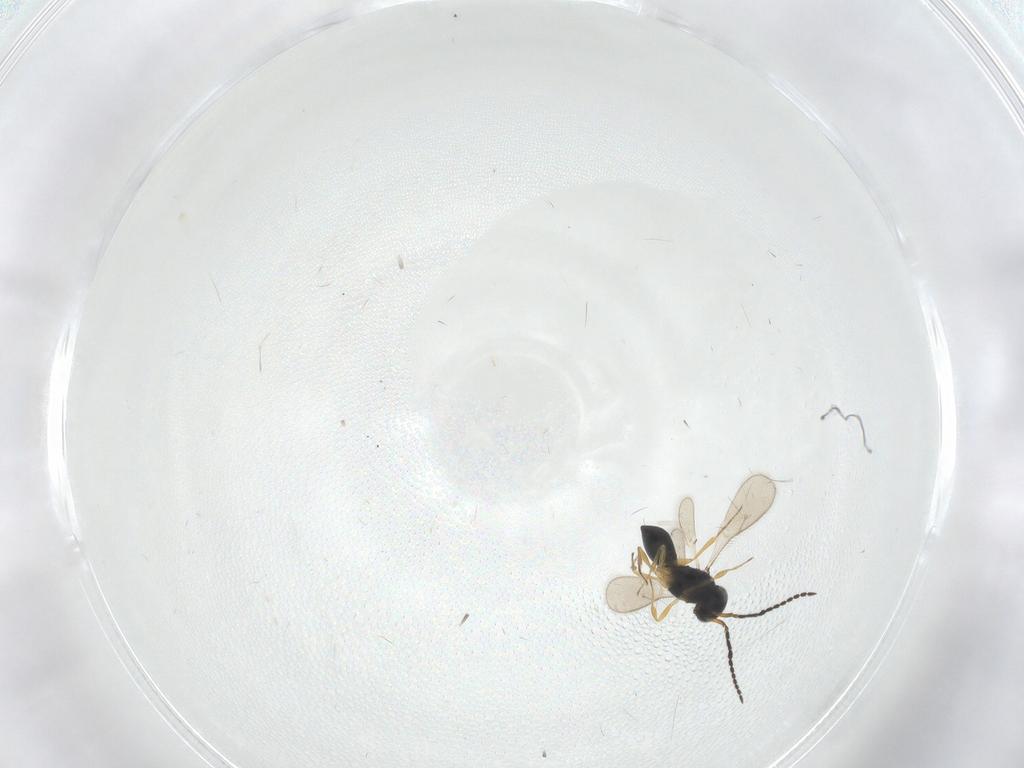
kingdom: Animalia
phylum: Arthropoda
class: Insecta
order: Hymenoptera
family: Scelionidae
